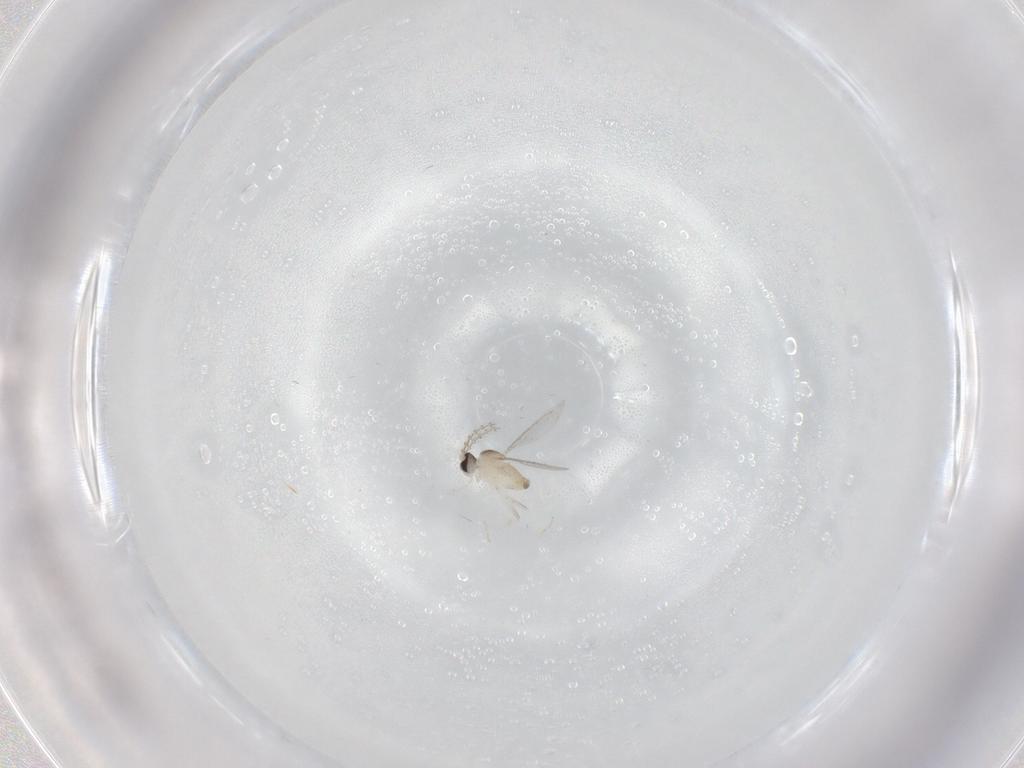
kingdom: Animalia
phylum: Arthropoda
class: Insecta
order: Diptera
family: Cecidomyiidae
